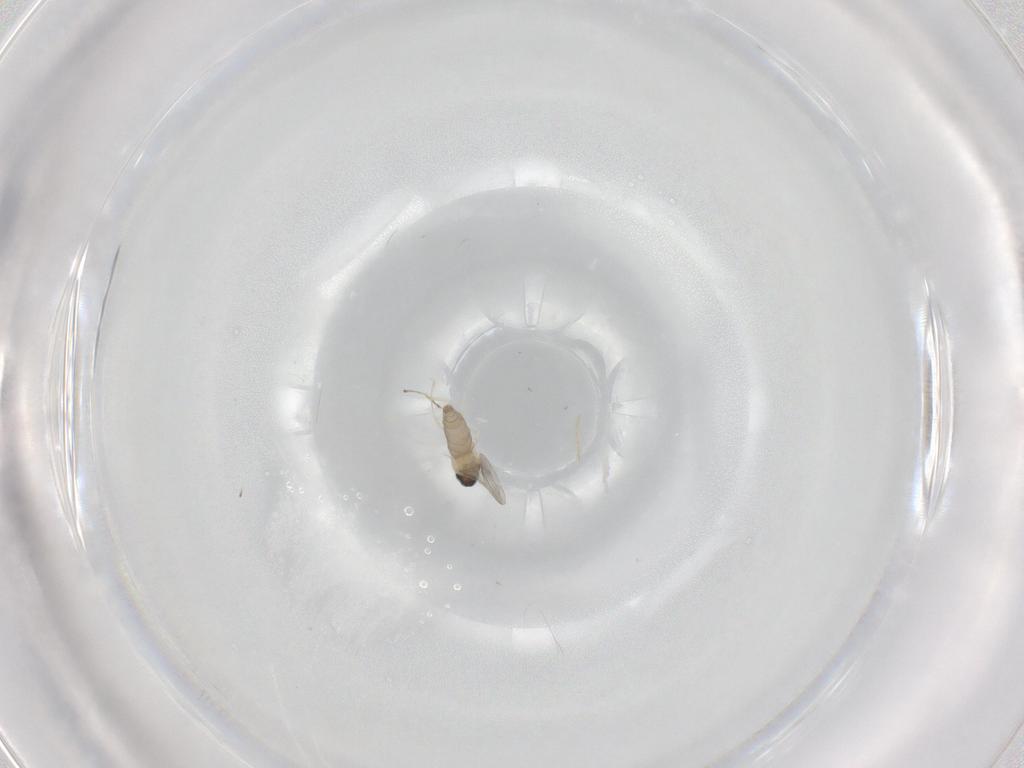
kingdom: Animalia
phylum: Arthropoda
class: Insecta
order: Diptera
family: Cecidomyiidae
